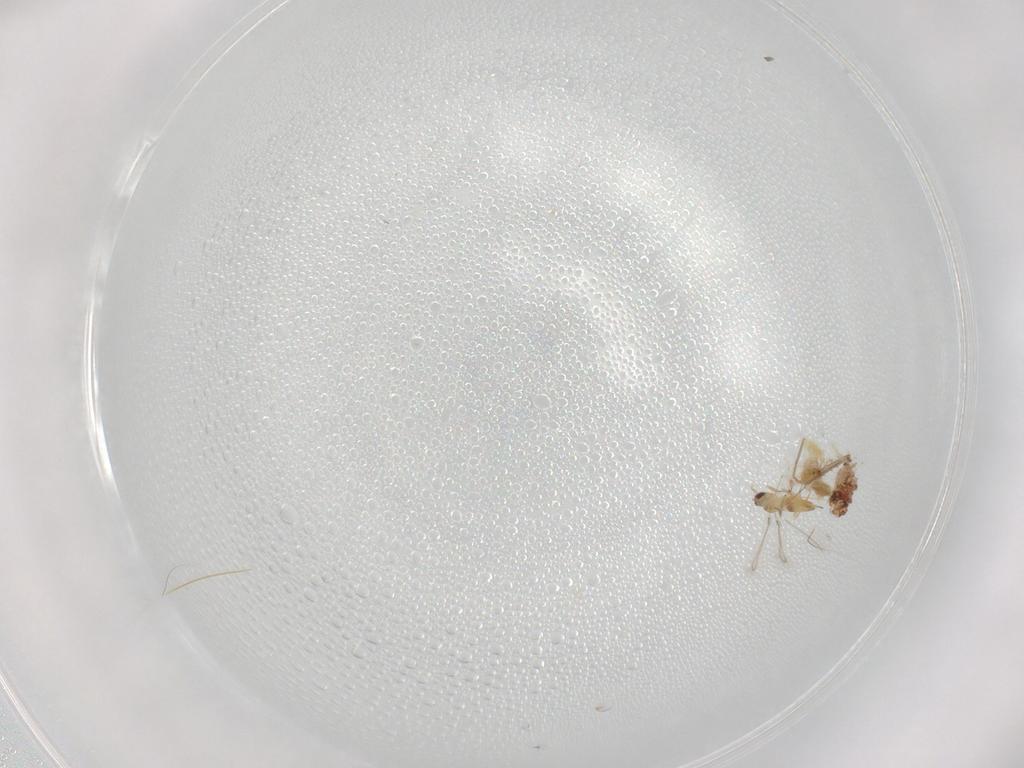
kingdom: Animalia
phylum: Arthropoda
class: Insecta
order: Hymenoptera
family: Mymaridae
